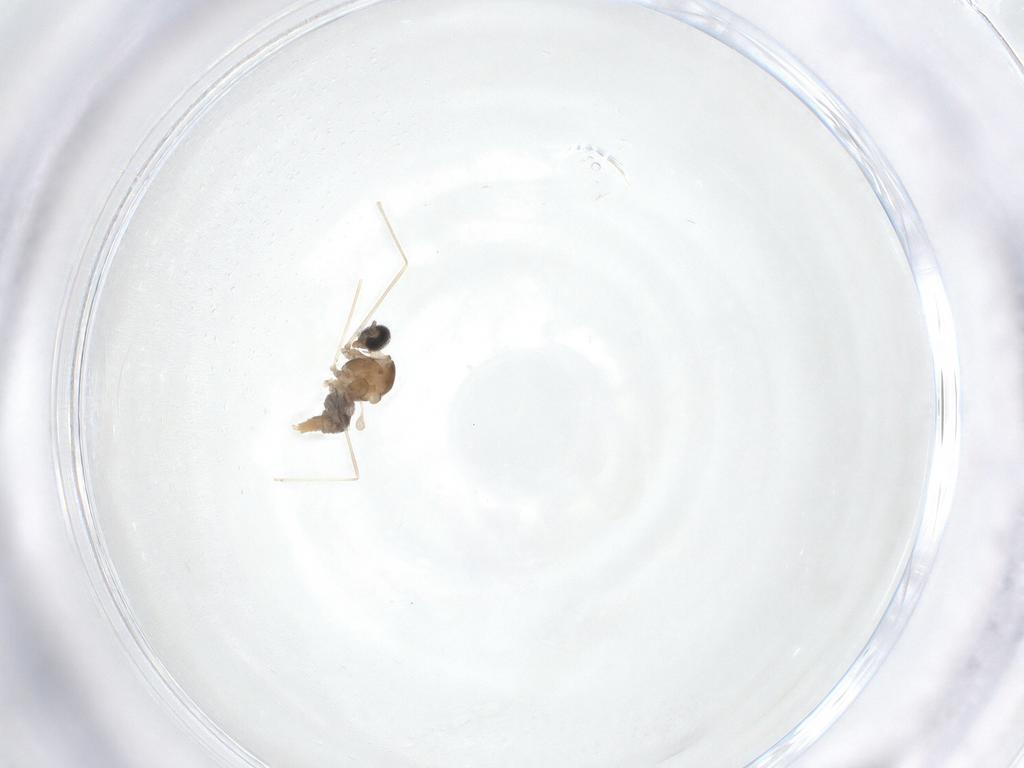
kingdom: Animalia
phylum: Arthropoda
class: Insecta
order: Diptera
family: Cecidomyiidae
